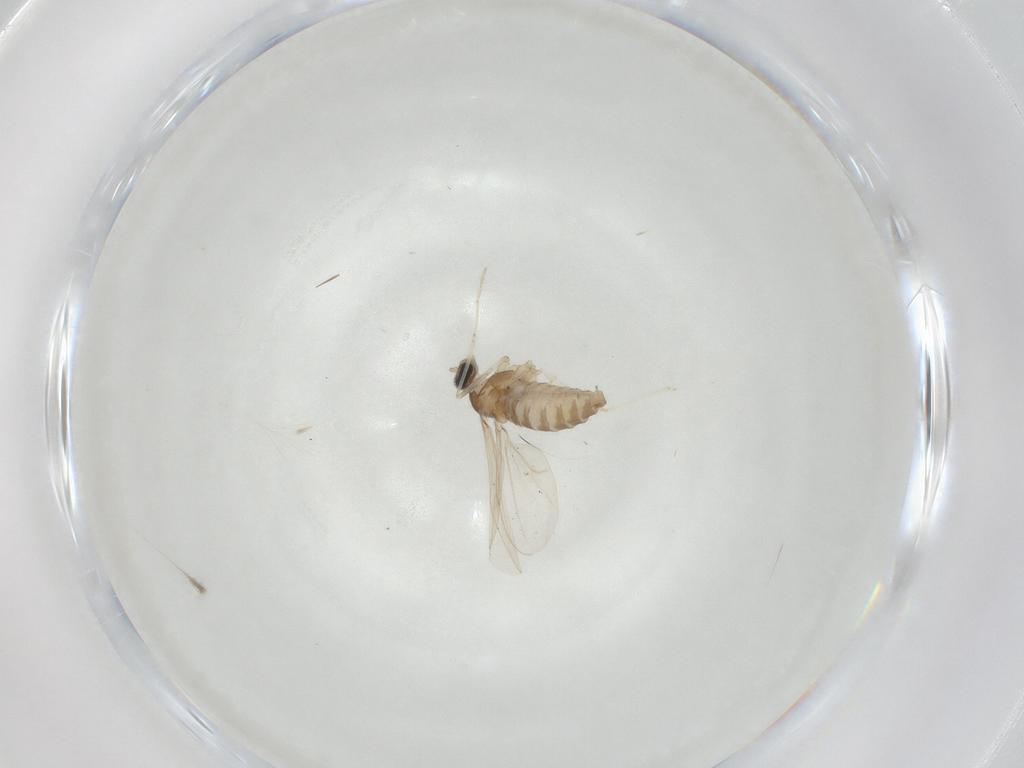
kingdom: Animalia
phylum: Arthropoda
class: Insecta
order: Diptera
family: Cecidomyiidae
